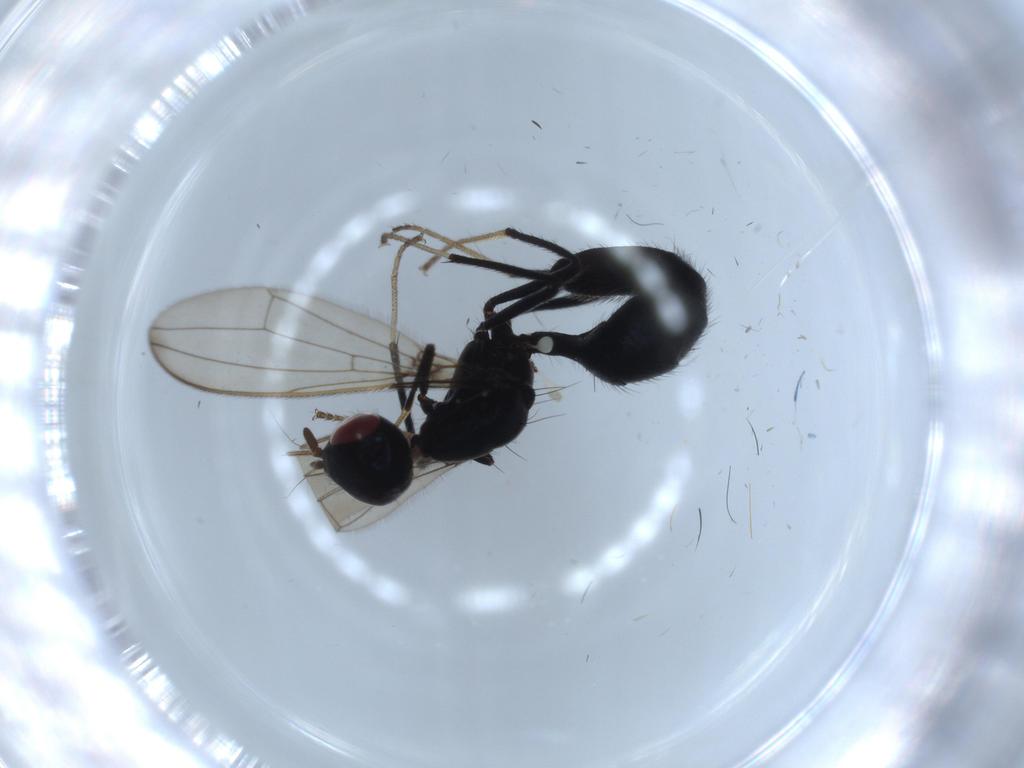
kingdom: Animalia
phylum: Arthropoda
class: Insecta
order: Diptera
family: Richardiidae
